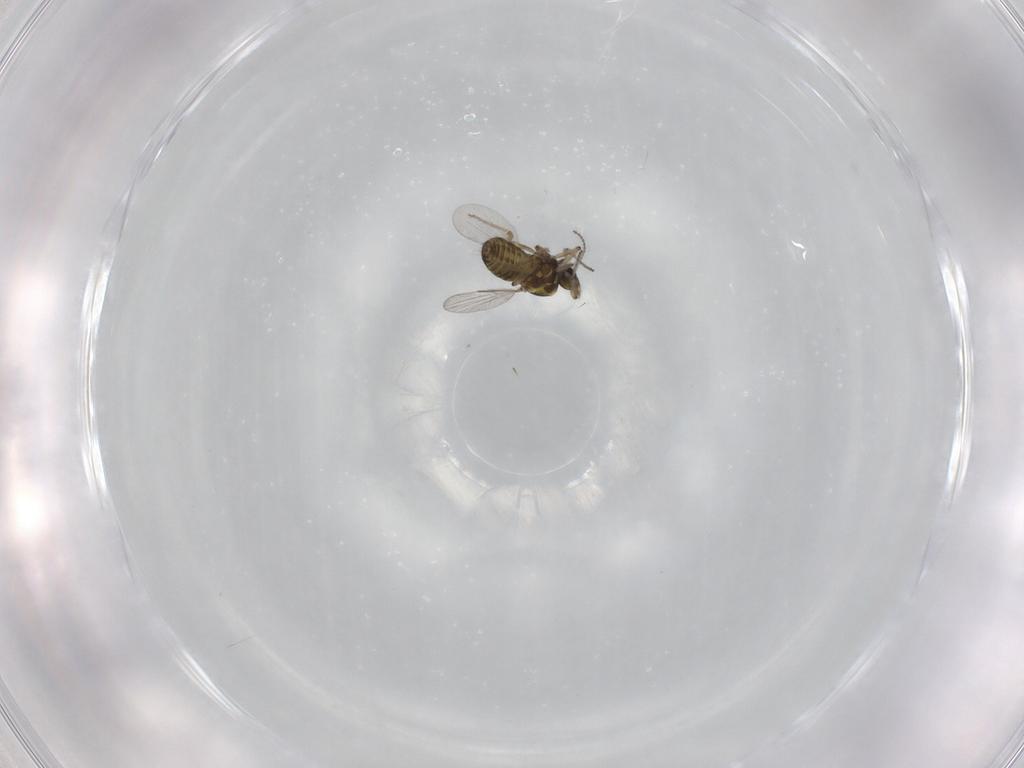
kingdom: Animalia
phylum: Arthropoda
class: Insecta
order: Diptera
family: Ceratopogonidae
